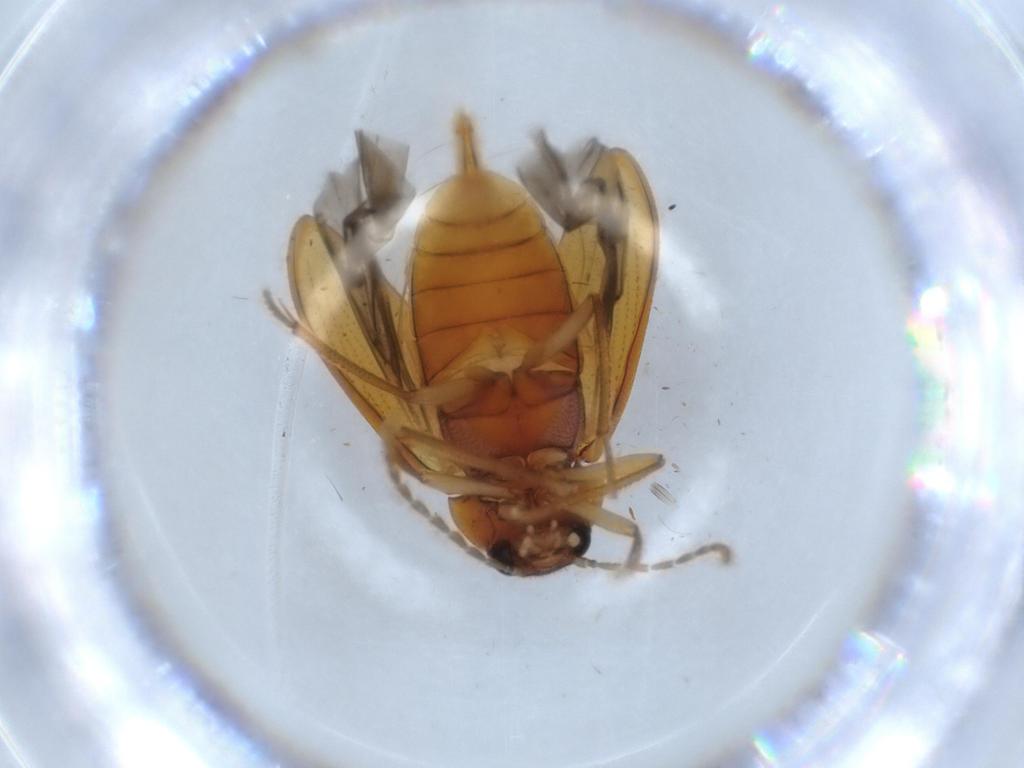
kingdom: Animalia
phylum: Arthropoda
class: Insecta
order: Coleoptera
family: Ptilodactylidae
